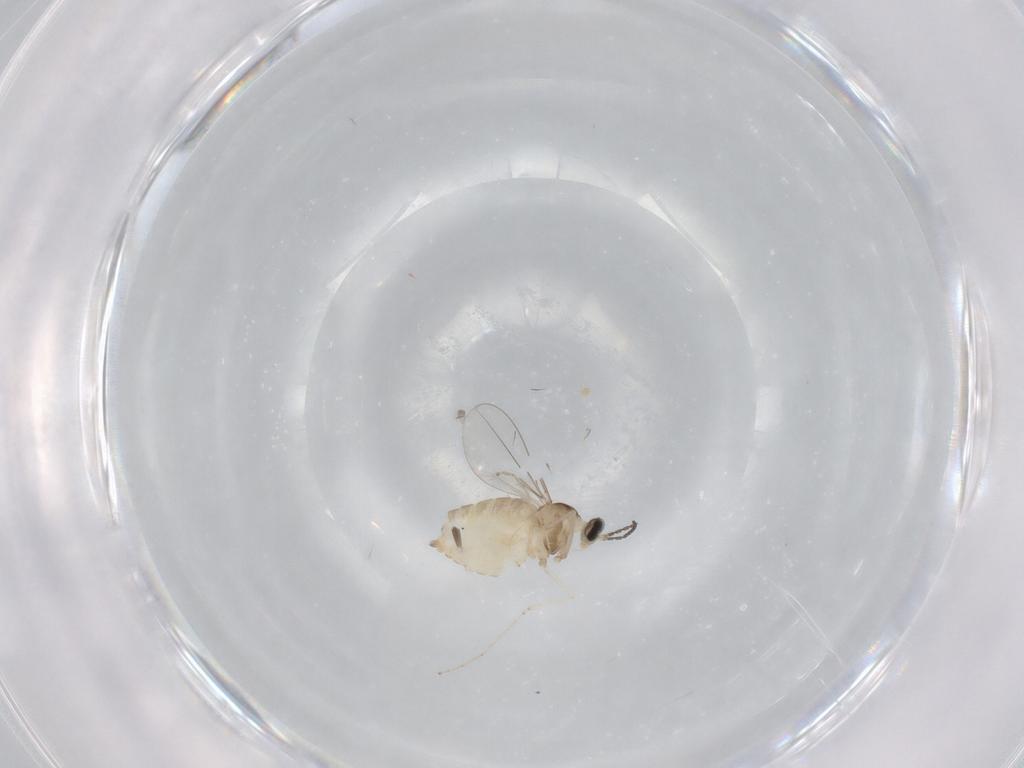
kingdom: Animalia
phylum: Arthropoda
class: Insecta
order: Diptera
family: Cecidomyiidae
